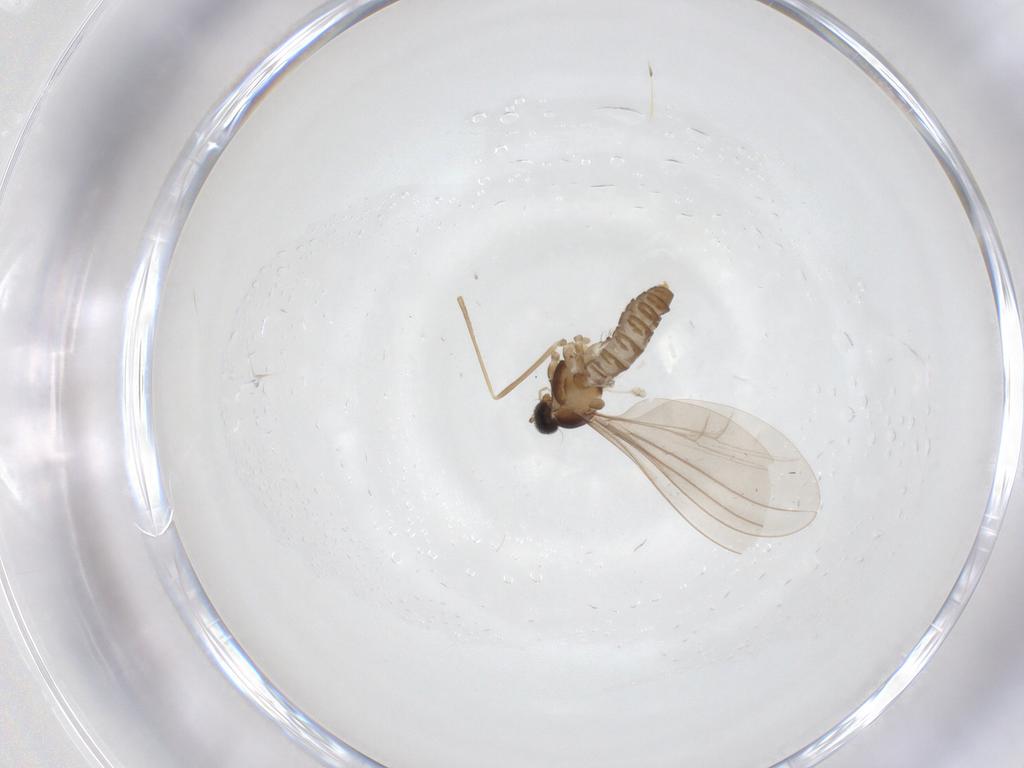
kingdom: Animalia
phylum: Arthropoda
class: Insecta
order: Diptera
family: Cecidomyiidae
